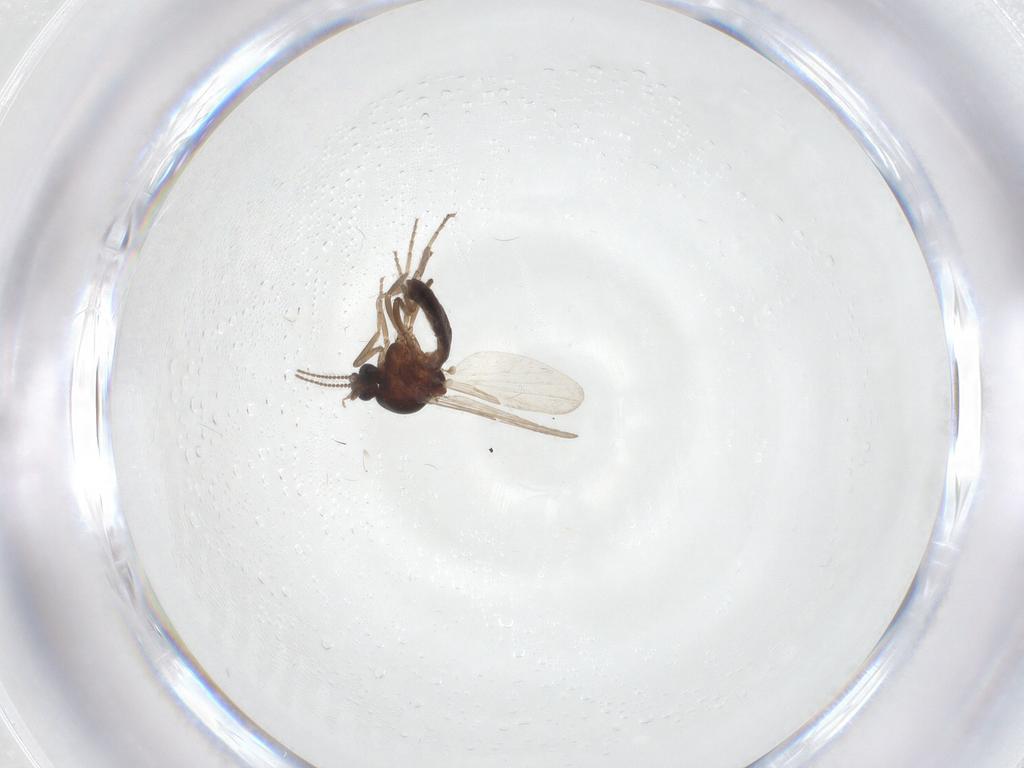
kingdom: Animalia
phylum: Arthropoda
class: Insecta
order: Diptera
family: Ceratopogonidae
